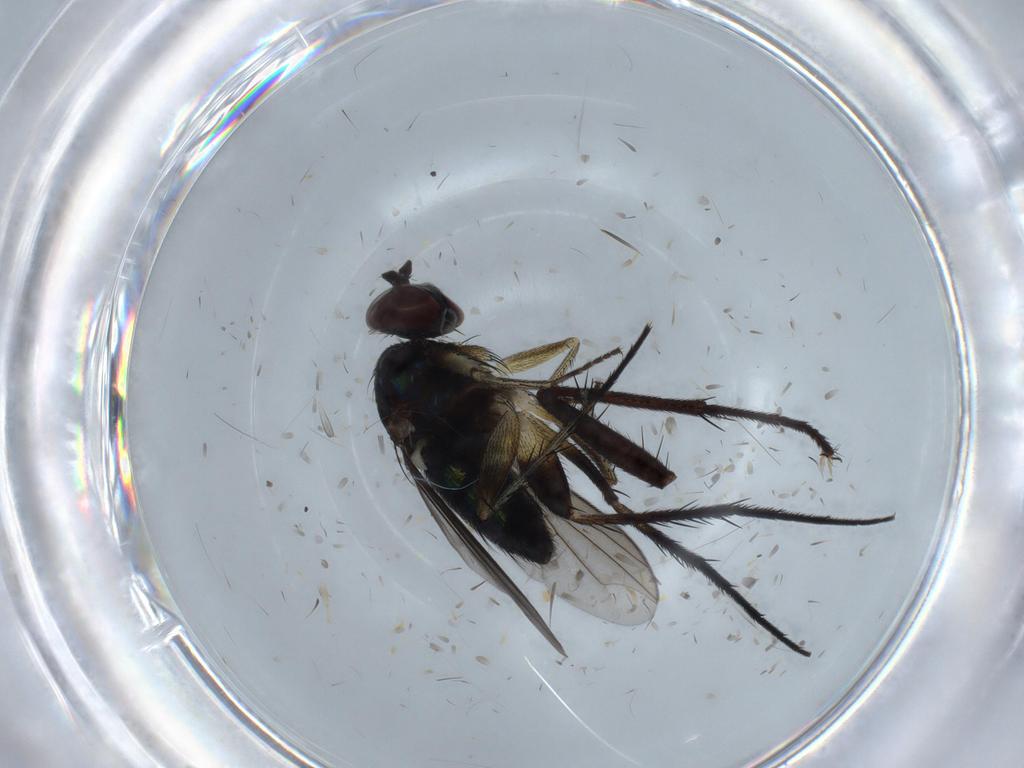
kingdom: Animalia
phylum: Arthropoda
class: Insecta
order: Diptera
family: Dolichopodidae
